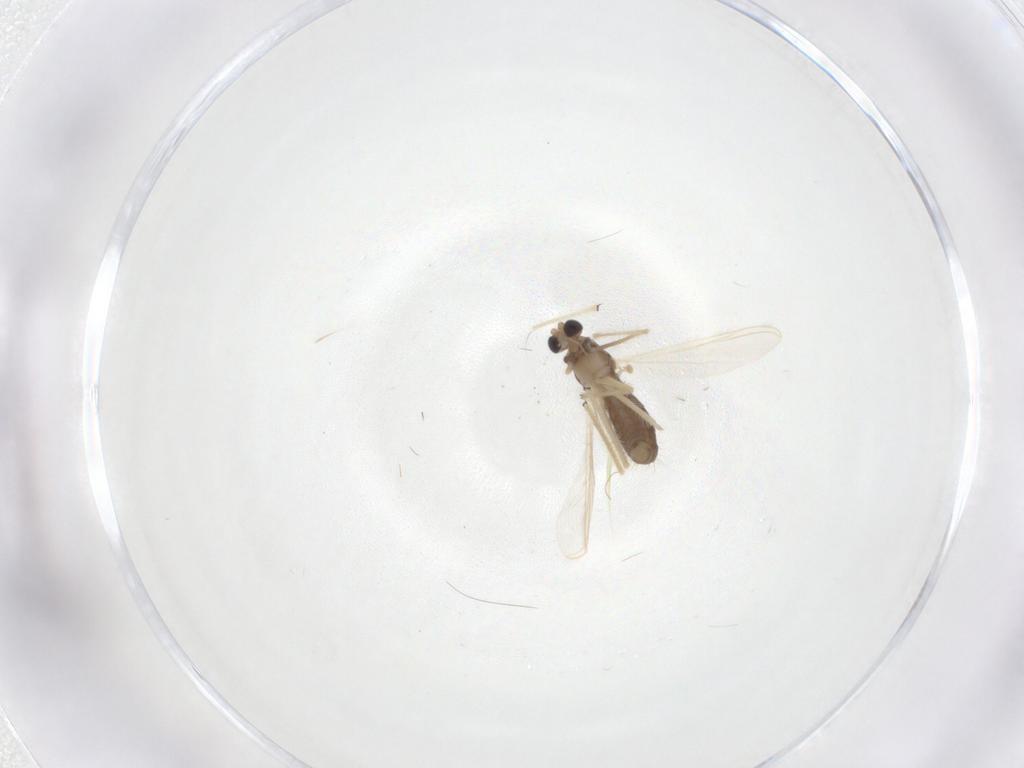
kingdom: Animalia
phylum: Arthropoda
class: Insecta
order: Diptera
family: Chironomidae
